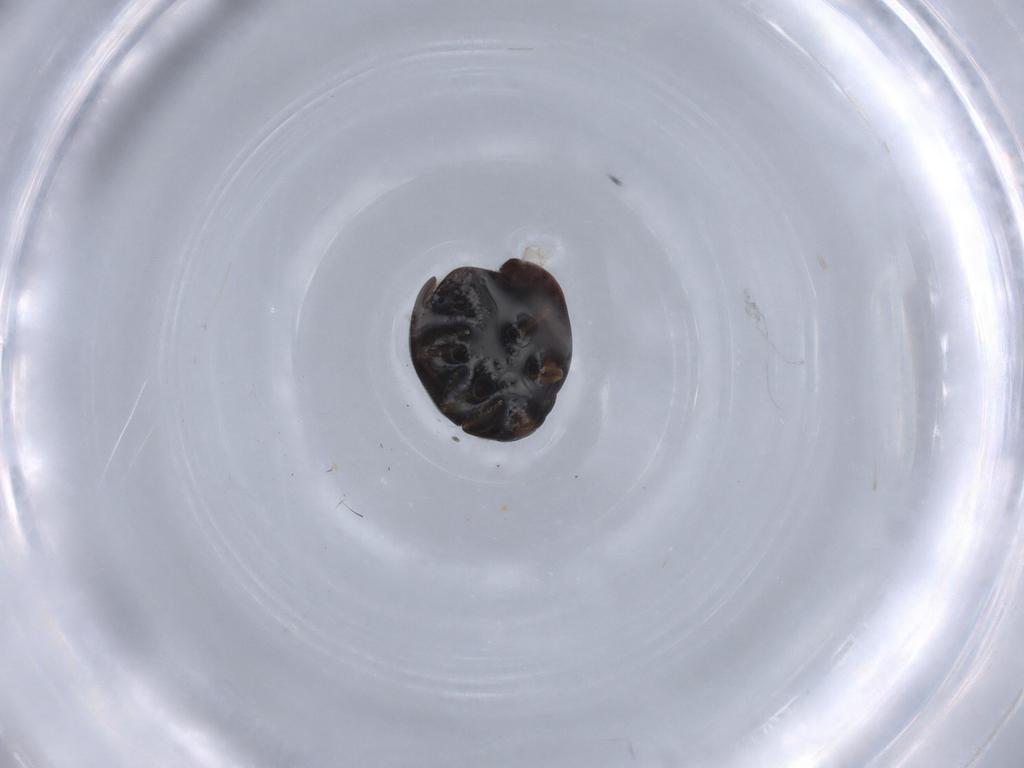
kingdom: Animalia
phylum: Arthropoda
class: Insecta
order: Coleoptera
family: Coccinellidae
